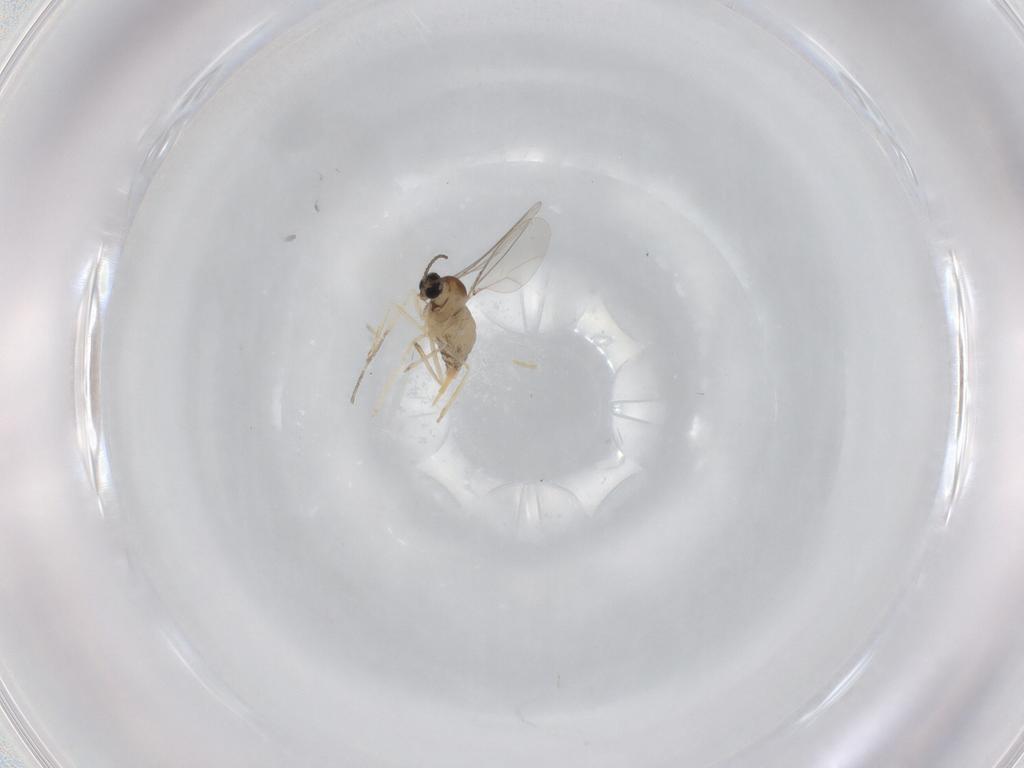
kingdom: Animalia
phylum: Arthropoda
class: Insecta
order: Diptera
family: Cecidomyiidae
